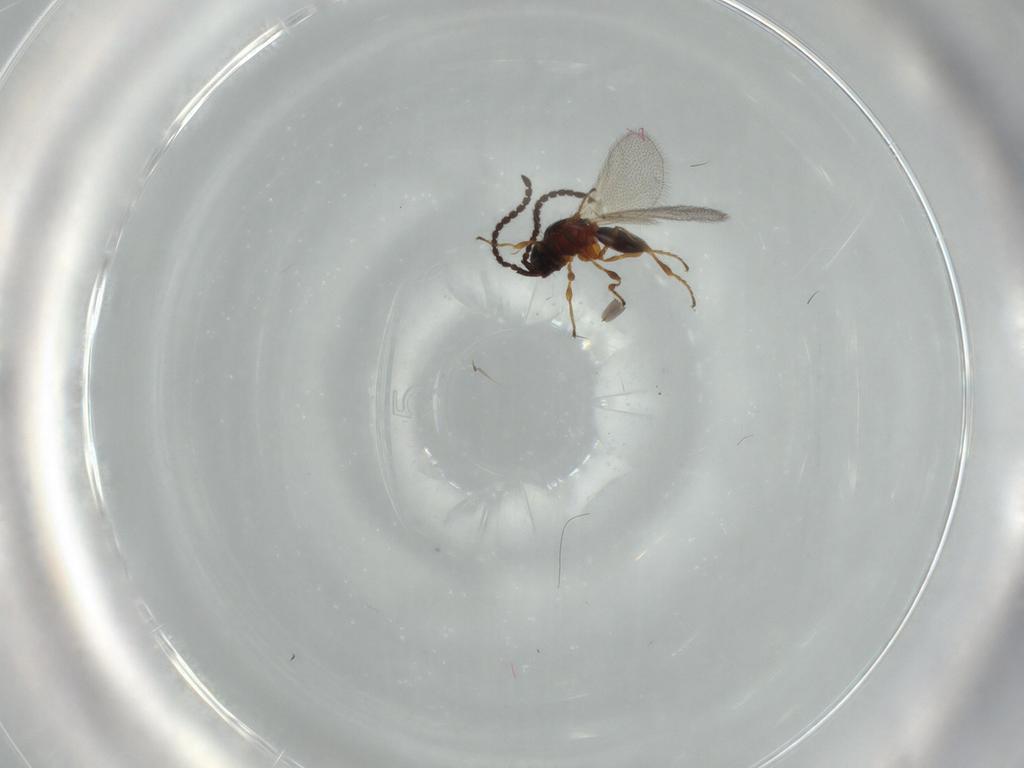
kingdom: Animalia
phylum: Arthropoda
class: Insecta
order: Hymenoptera
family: Diapriidae
